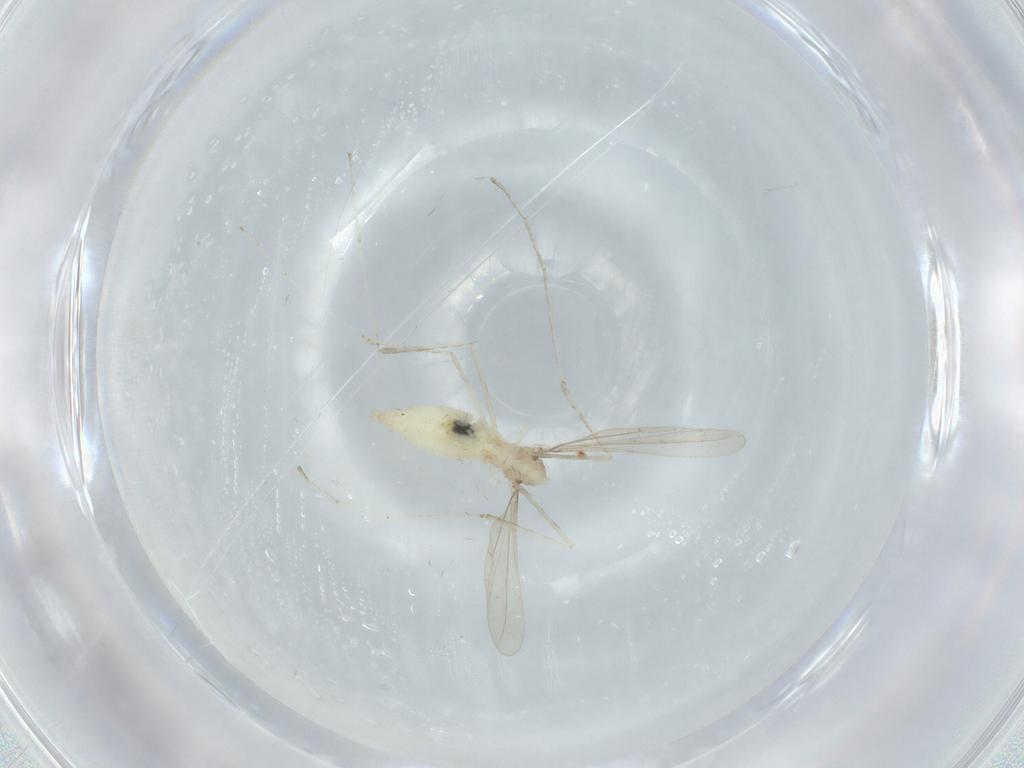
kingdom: Animalia
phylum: Arthropoda
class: Insecta
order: Diptera
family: Cecidomyiidae
